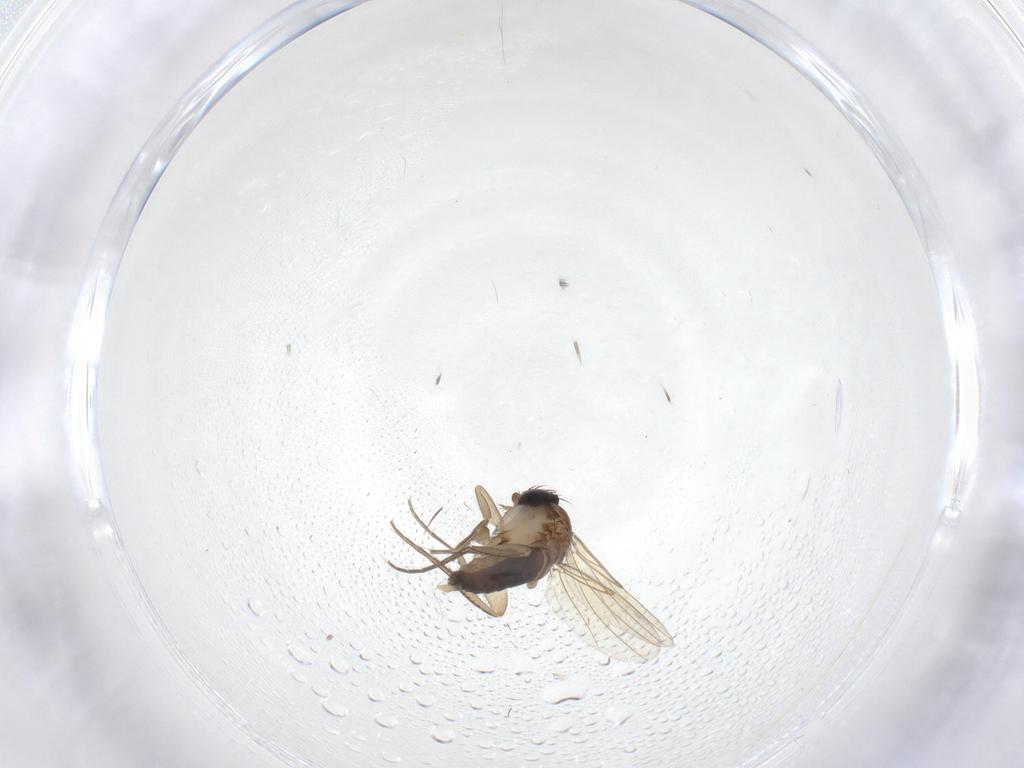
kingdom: Animalia
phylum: Arthropoda
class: Insecta
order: Diptera
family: Phoridae
